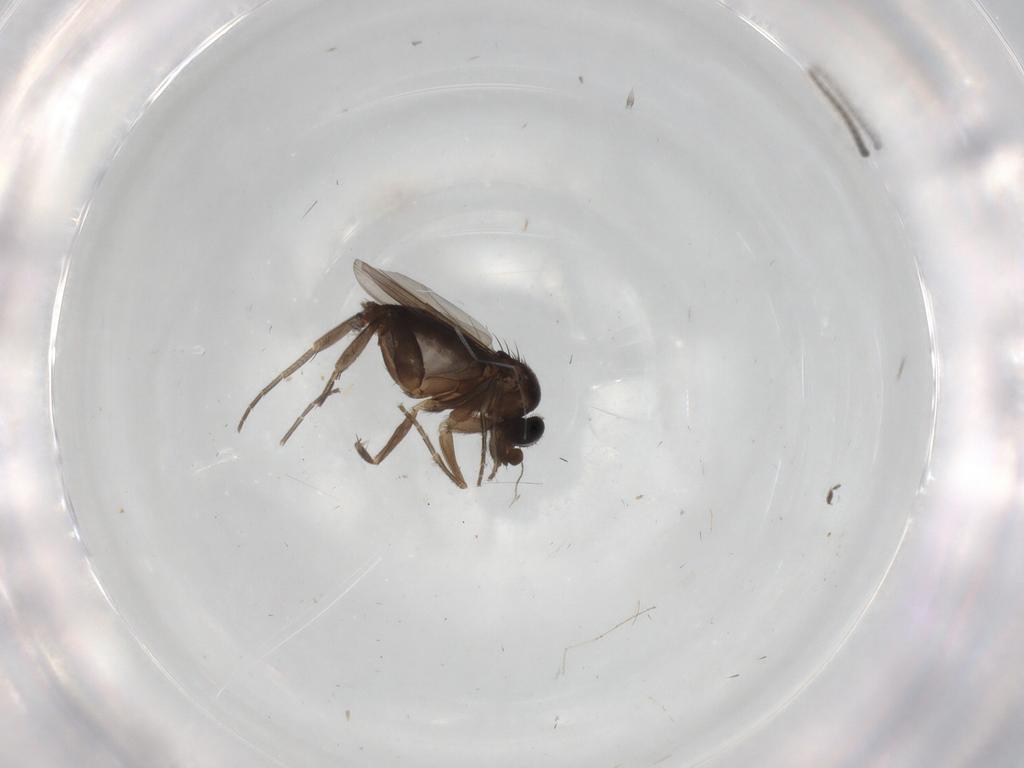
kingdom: Animalia
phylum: Arthropoda
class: Insecta
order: Diptera
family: Phoridae
